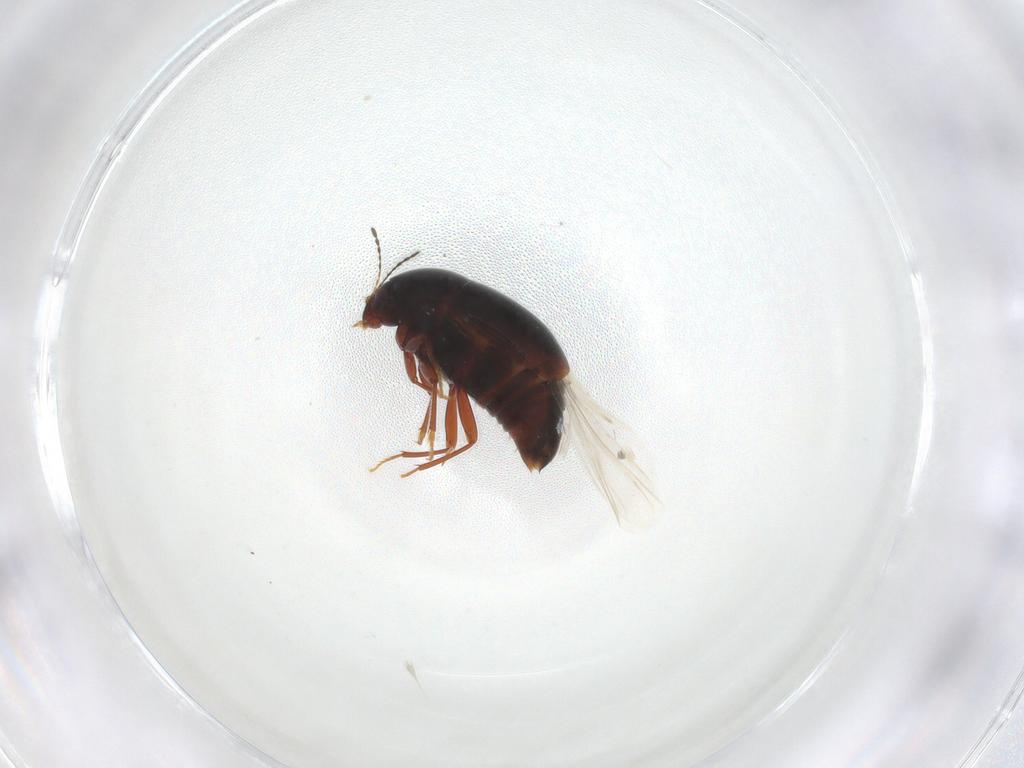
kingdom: Animalia
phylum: Arthropoda
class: Insecta
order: Coleoptera
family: Staphylinidae
